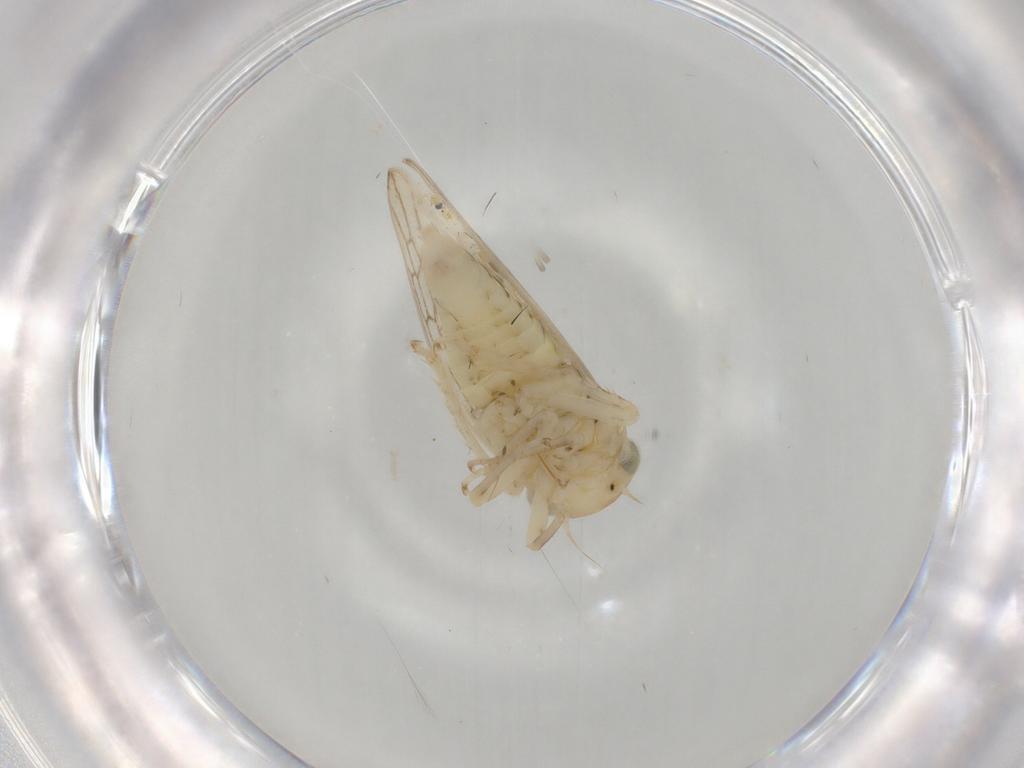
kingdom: Animalia
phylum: Arthropoda
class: Insecta
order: Hemiptera
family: Cicadellidae
